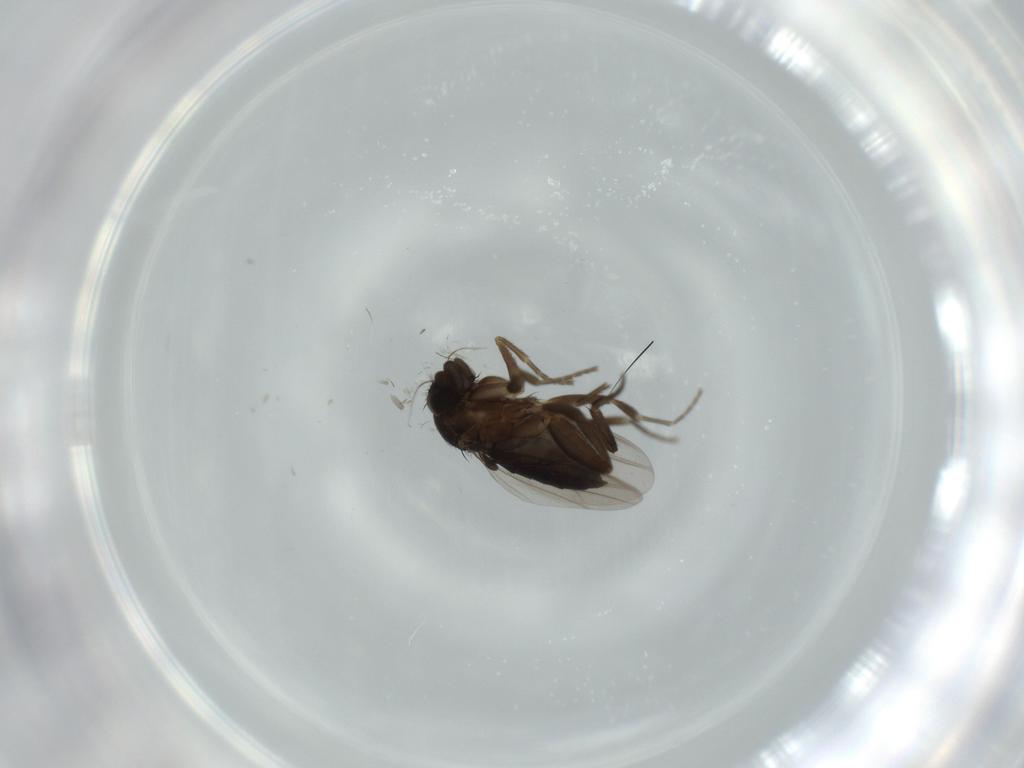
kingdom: Animalia
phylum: Arthropoda
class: Insecta
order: Diptera
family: Phoridae
